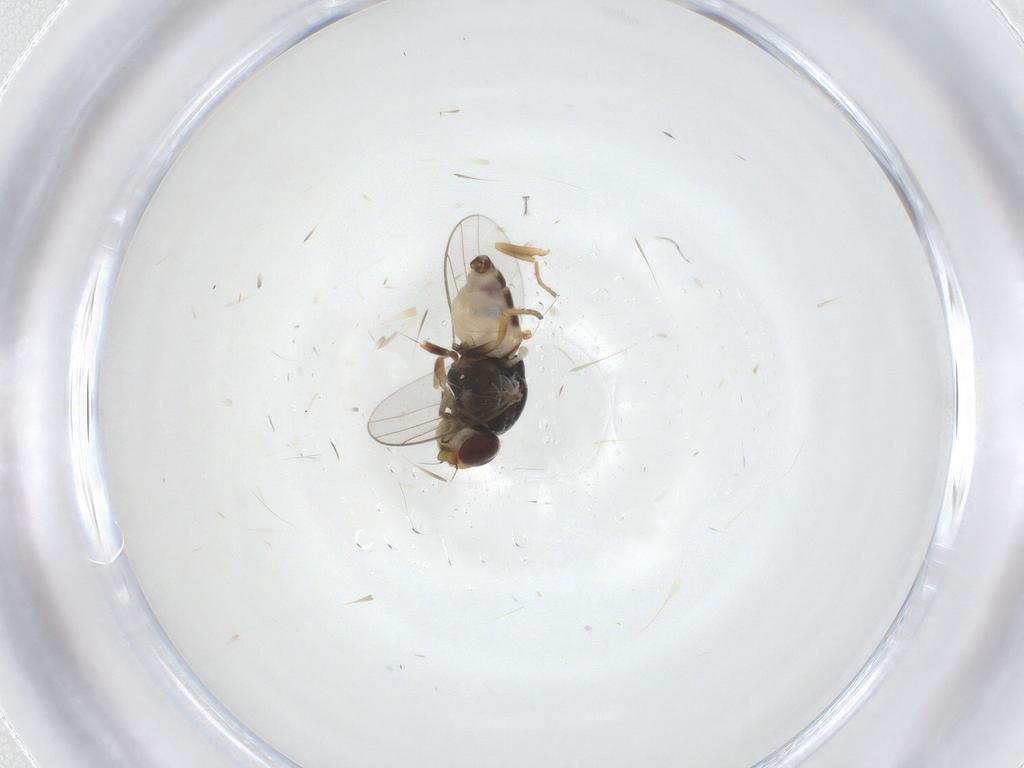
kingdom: Animalia
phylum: Arthropoda
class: Insecta
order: Diptera
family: Chloropidae
